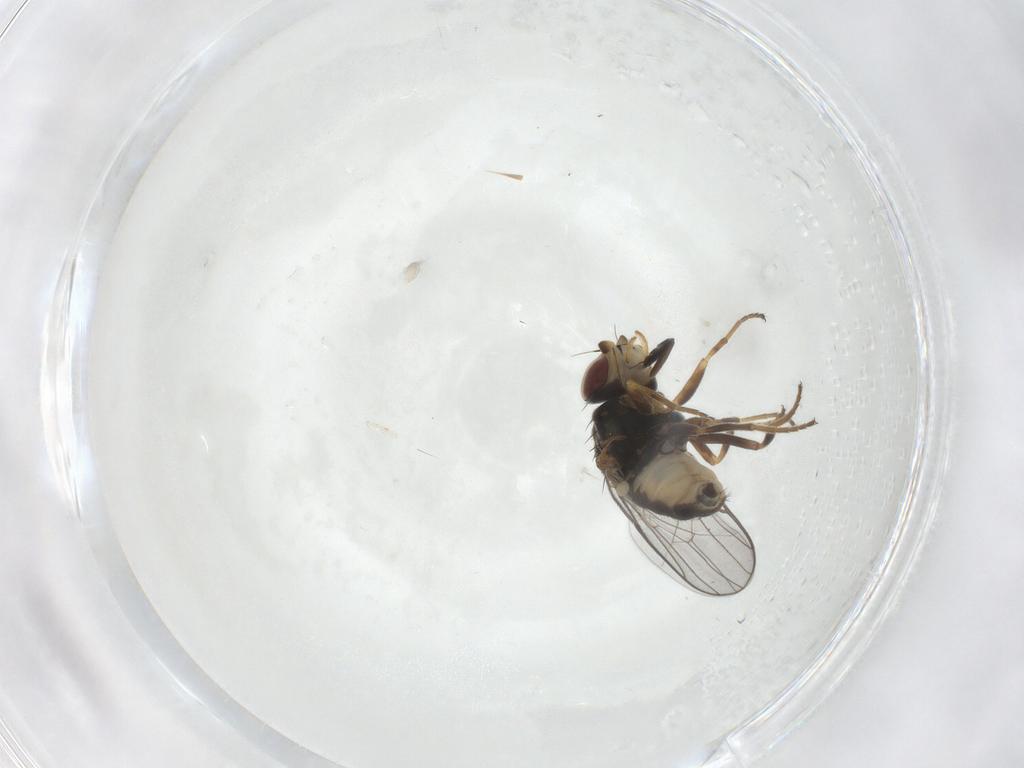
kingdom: Animalia
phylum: Arthropoda
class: Insecta
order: Diptera
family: Chloropidae
